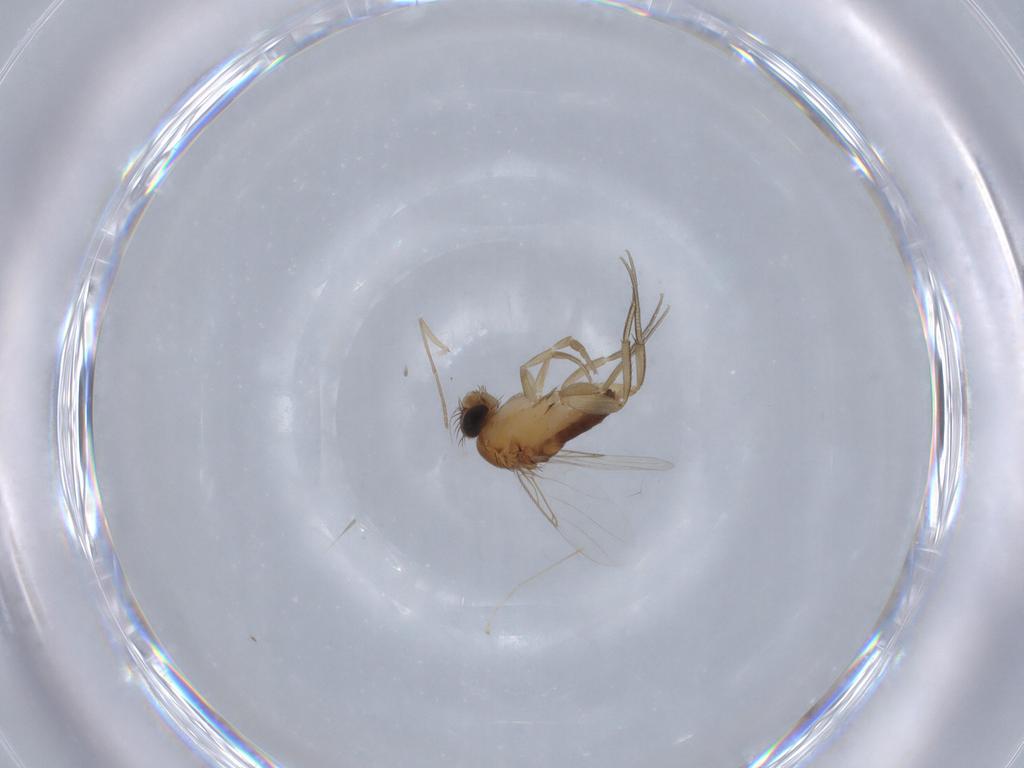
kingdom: Animalia
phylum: Arthropoda
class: Insecta
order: Diptera
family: Phoridae
